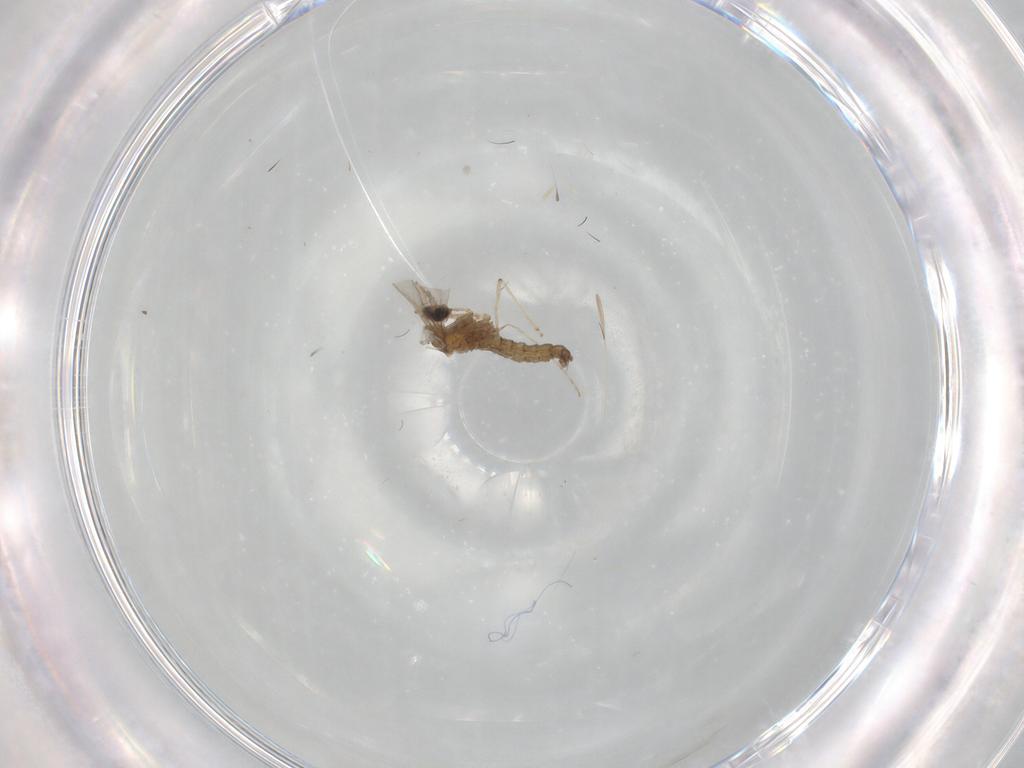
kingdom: Animalia
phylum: Arthropoda
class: Insecta
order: Diptera
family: Cecidomyiidae
